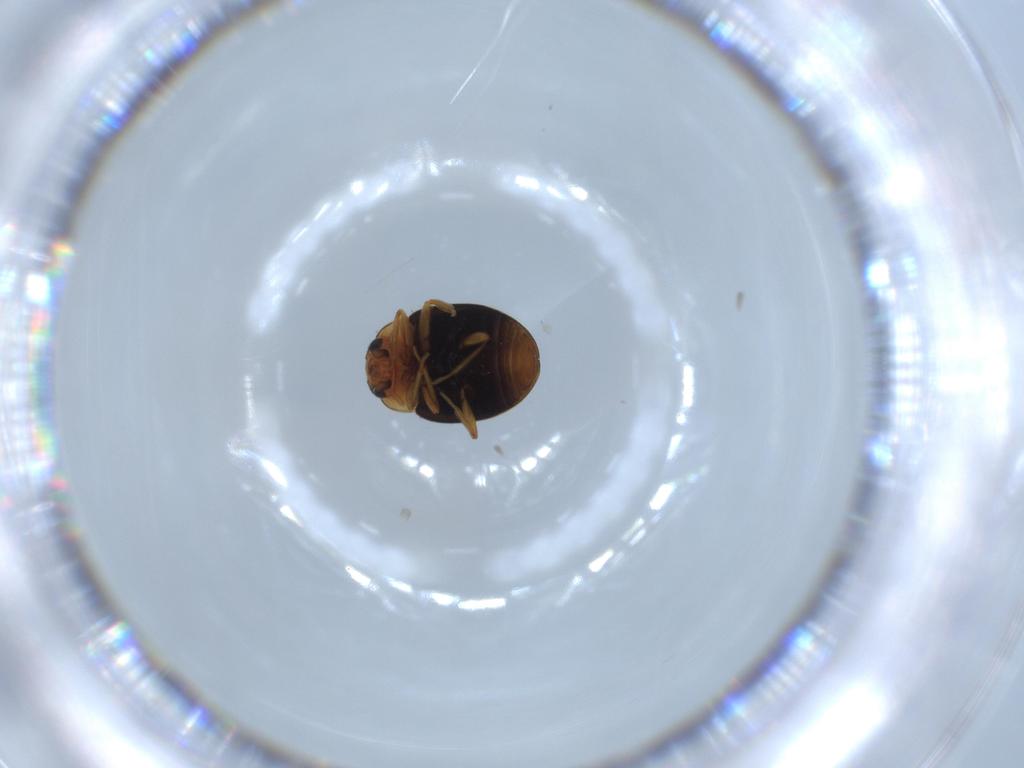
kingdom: Animalia
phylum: Arthropoda
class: Insecta
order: Coleoptera
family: Coccinellidae
